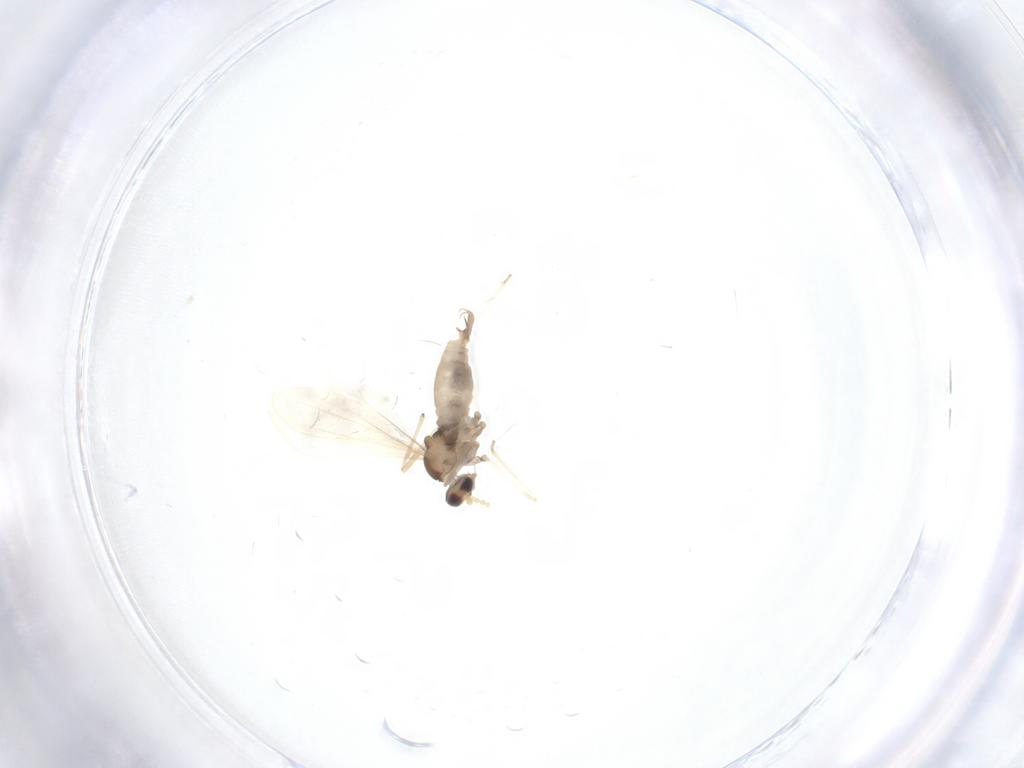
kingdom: Animalia
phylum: Arthropoda
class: Insecta
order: Diptera
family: Cecidomyiidae
